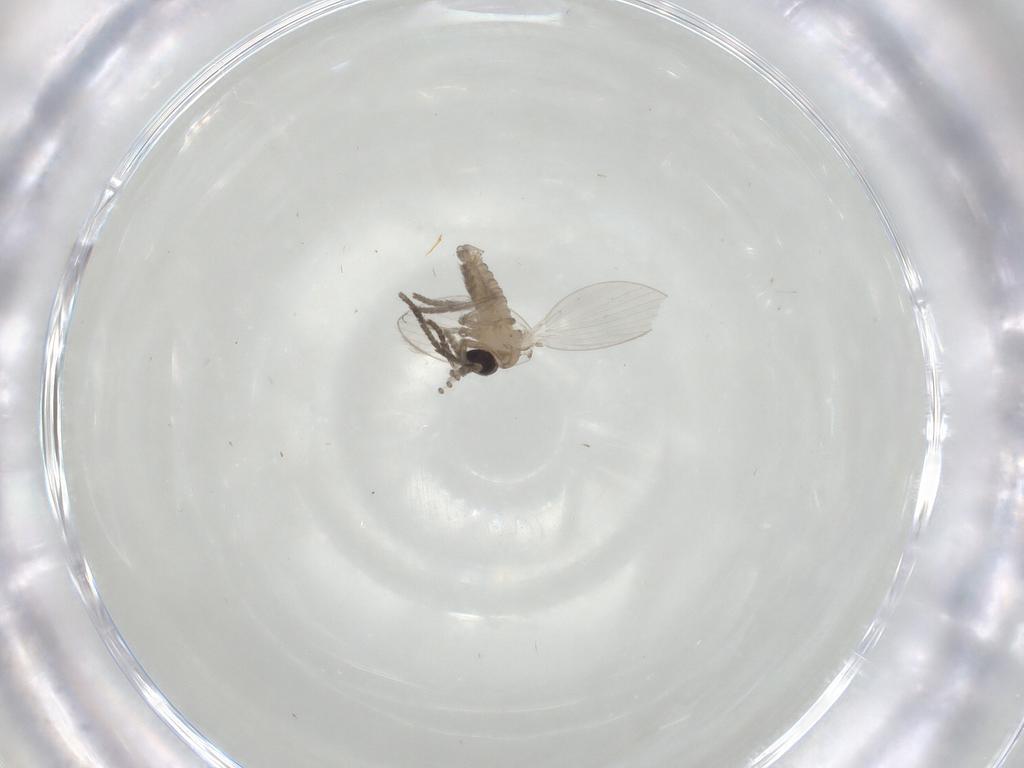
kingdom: Animalia
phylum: Arthropoda
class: Insecta
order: Diptera
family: Psychodidae
